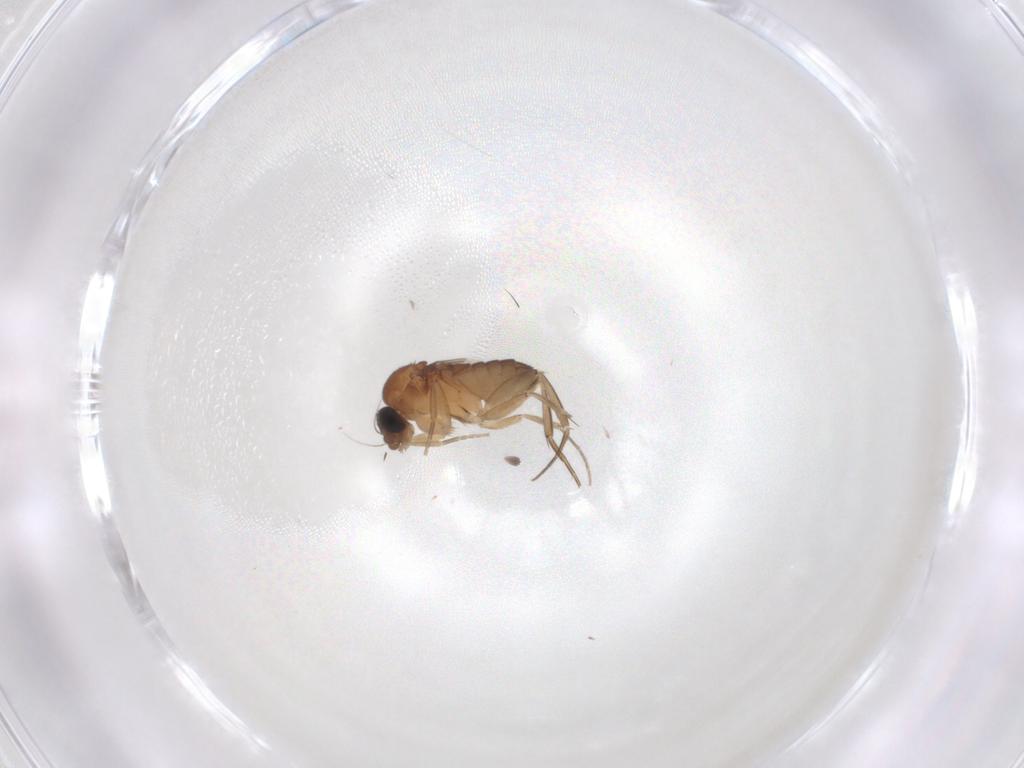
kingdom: Animalia
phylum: Arthropoda
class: Insecta
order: Diptera
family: Phoridae
